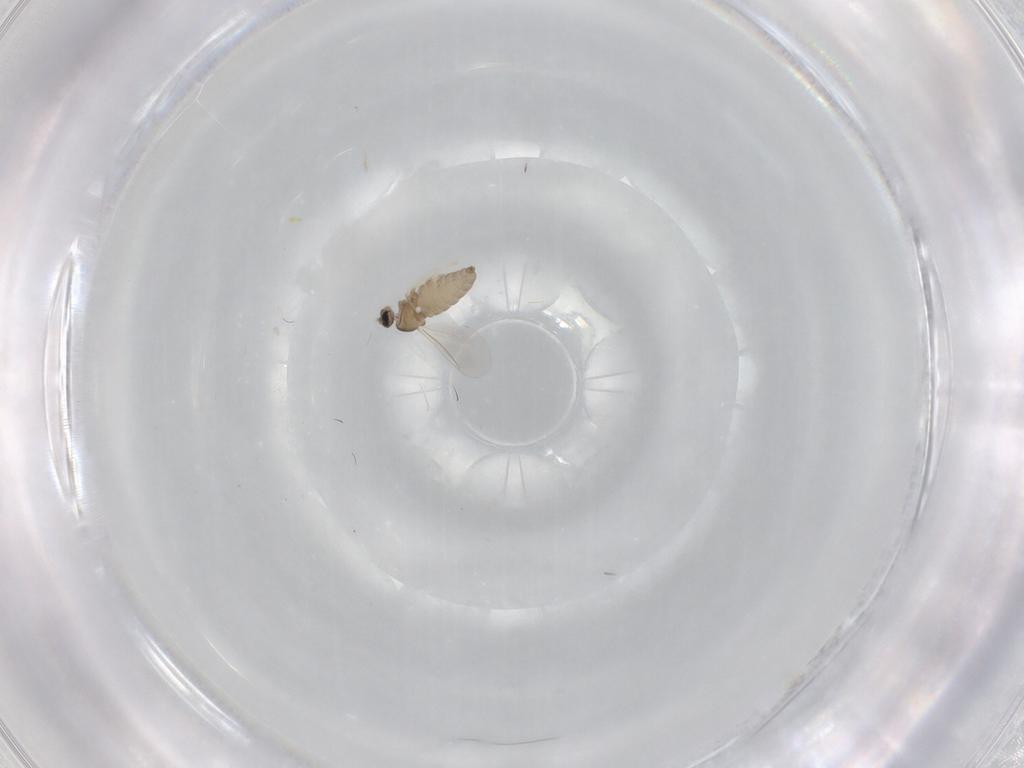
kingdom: Animalia
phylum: Arthropoda
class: Insecta
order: Diptera
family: Cecidomyiidae
